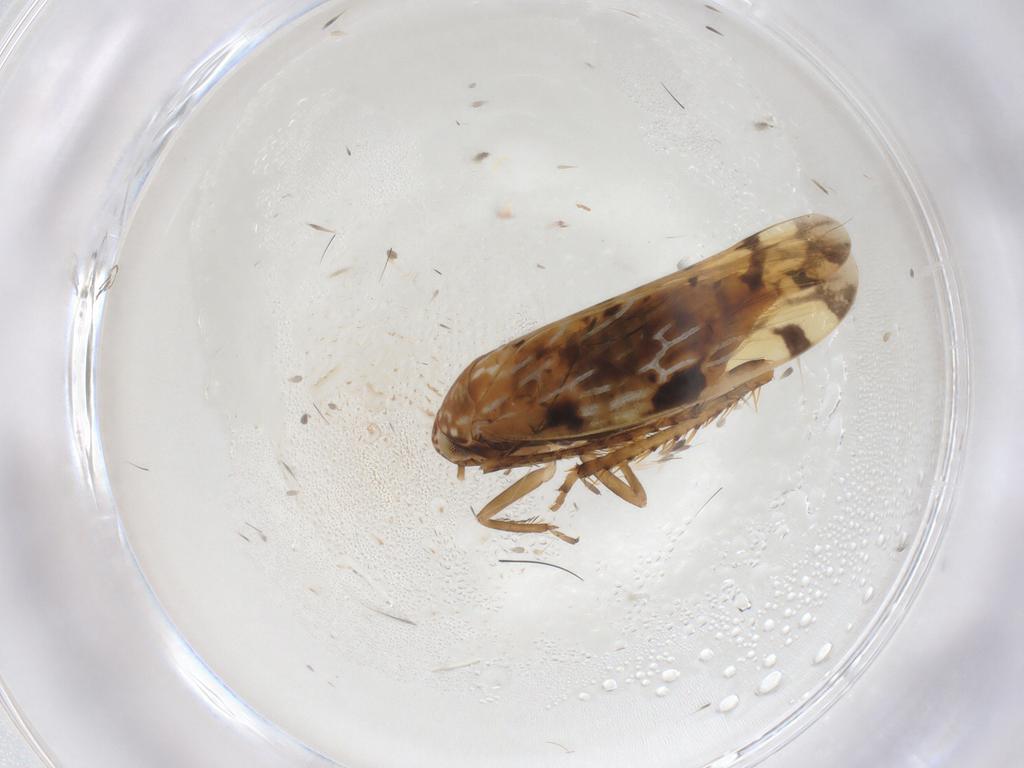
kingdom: Animalia
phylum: Arthropoda
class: Insecta
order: Hemiptera
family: Cicadellidae
